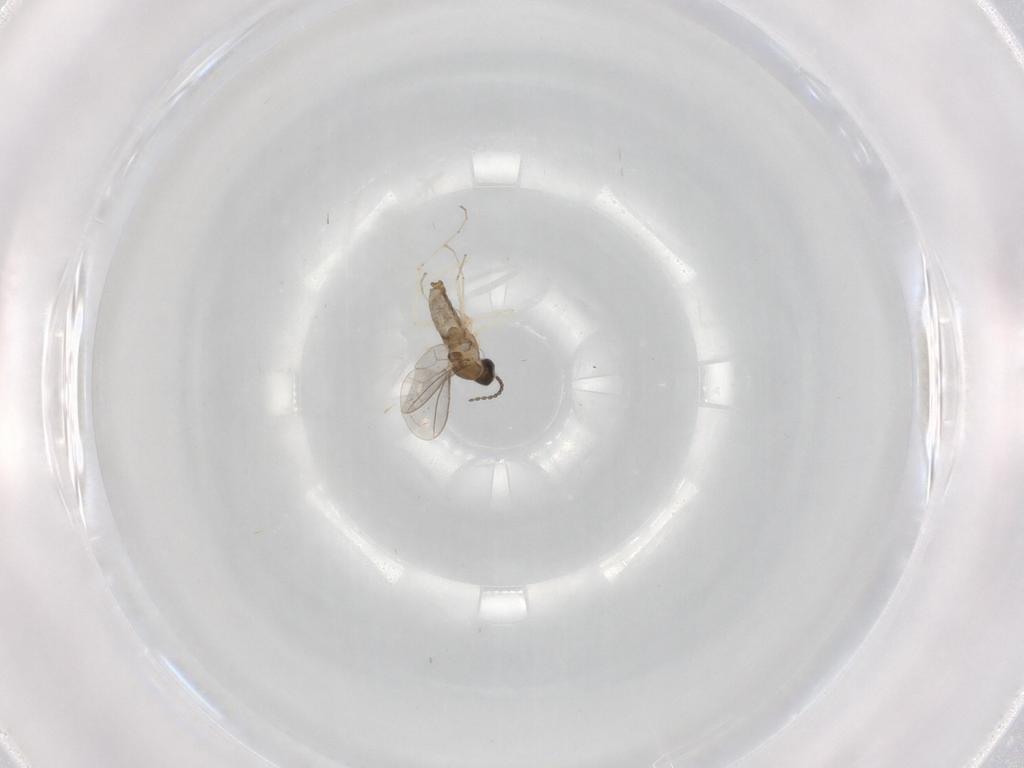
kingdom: Animalia
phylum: Arthropoda
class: Insecta
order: Diptera
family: Cecidomyiidae
